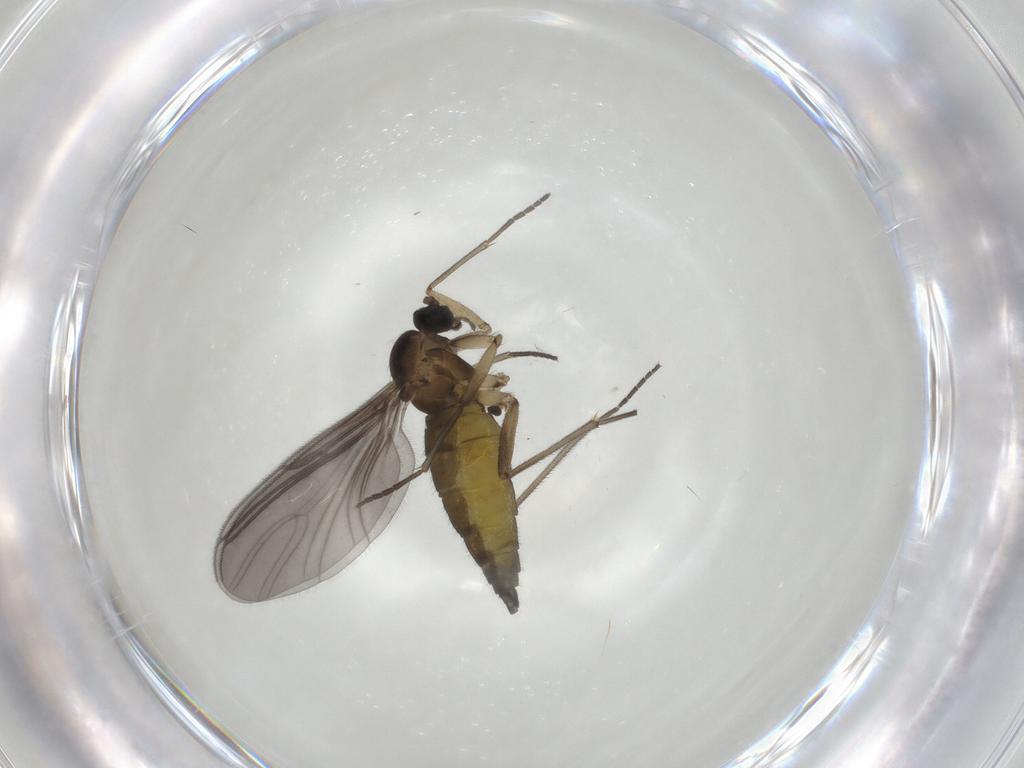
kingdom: Animalia
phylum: Arthropoda
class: Insecta
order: Diptera
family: Sciaridae
